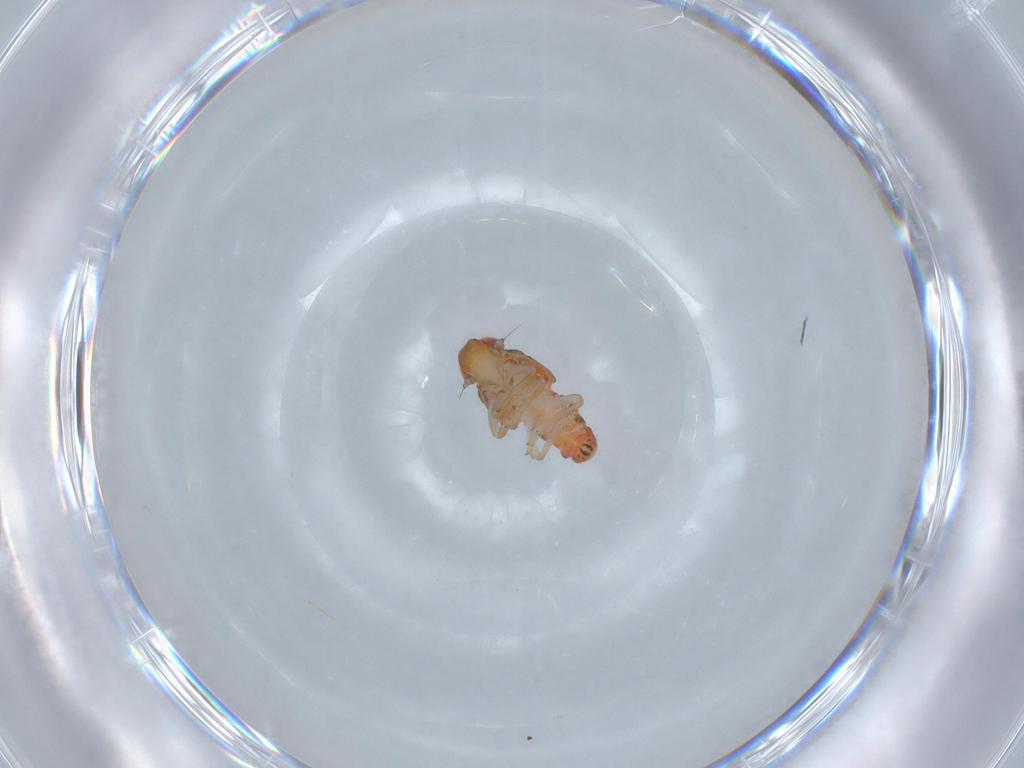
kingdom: Animalia
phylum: Arthropoda
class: Insecta
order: Hemiptera
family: Issidae
